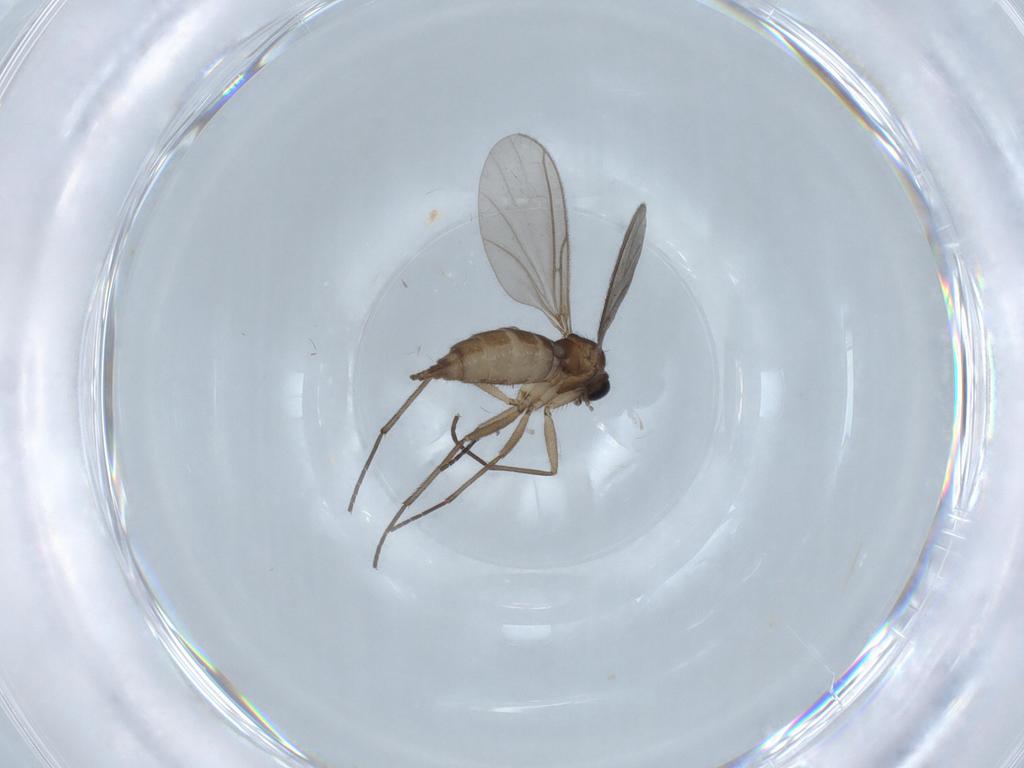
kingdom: Animalia
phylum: Arthropoda
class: Insecta
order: Diptera
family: Sciaridae
